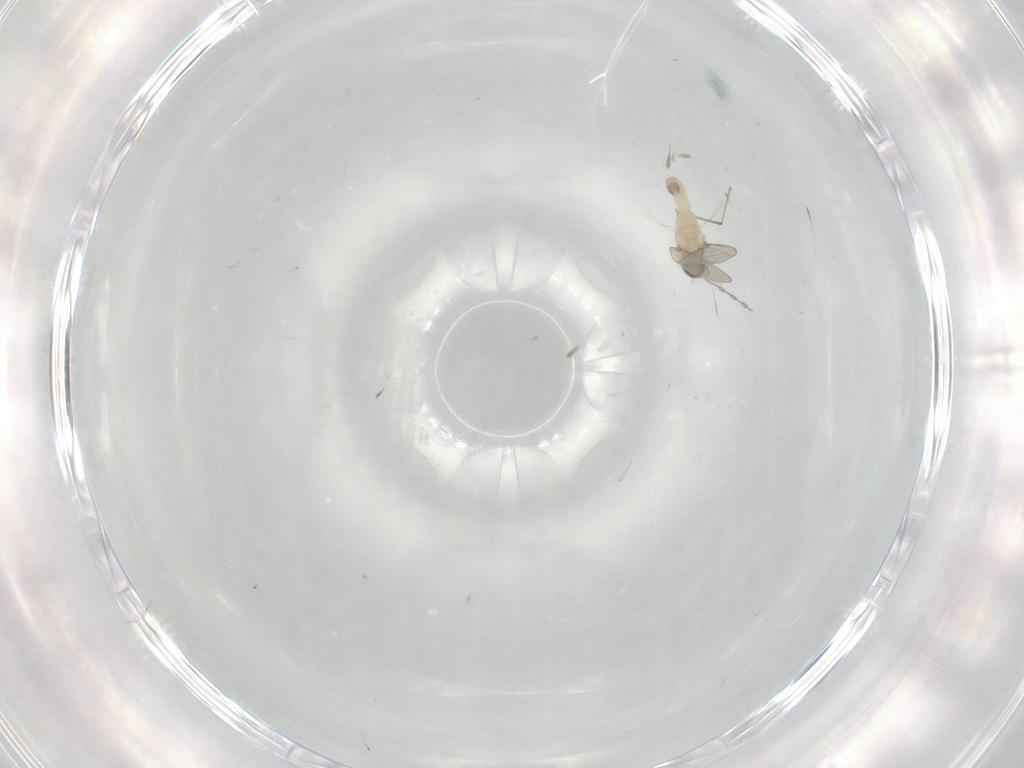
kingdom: Animalia
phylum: Arthropoda
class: Insecta
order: Diptera
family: Cecidomyiidae
